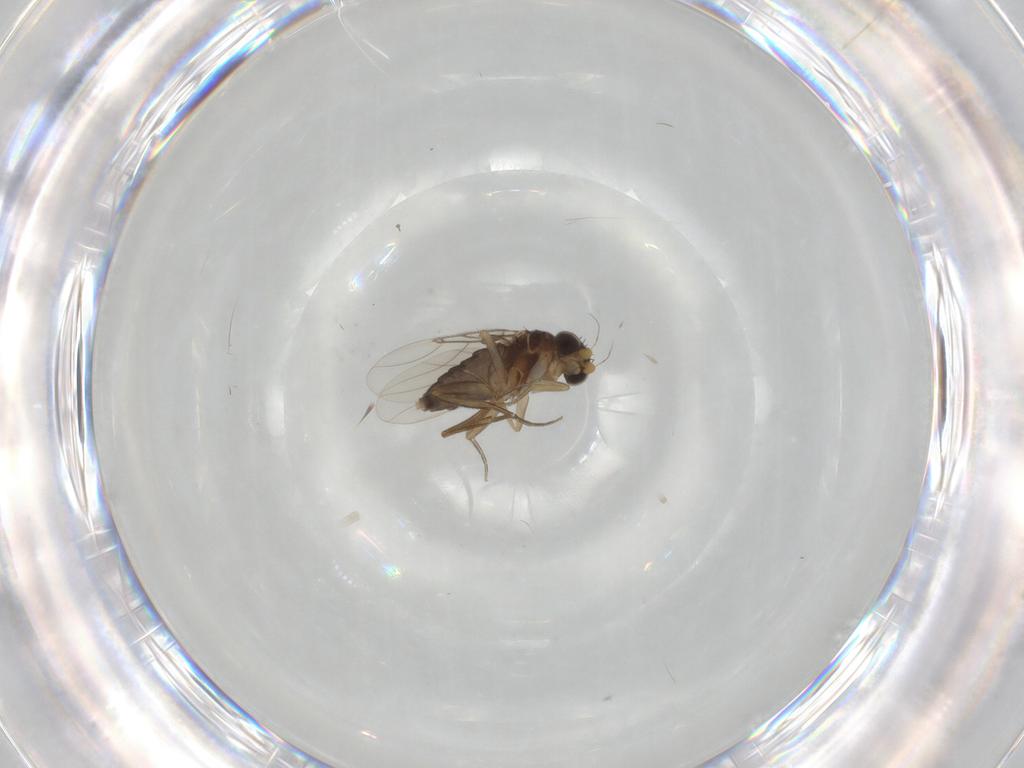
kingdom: Animalia
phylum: Arthropoda
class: Insecta
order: Diptera
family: Phoridae
